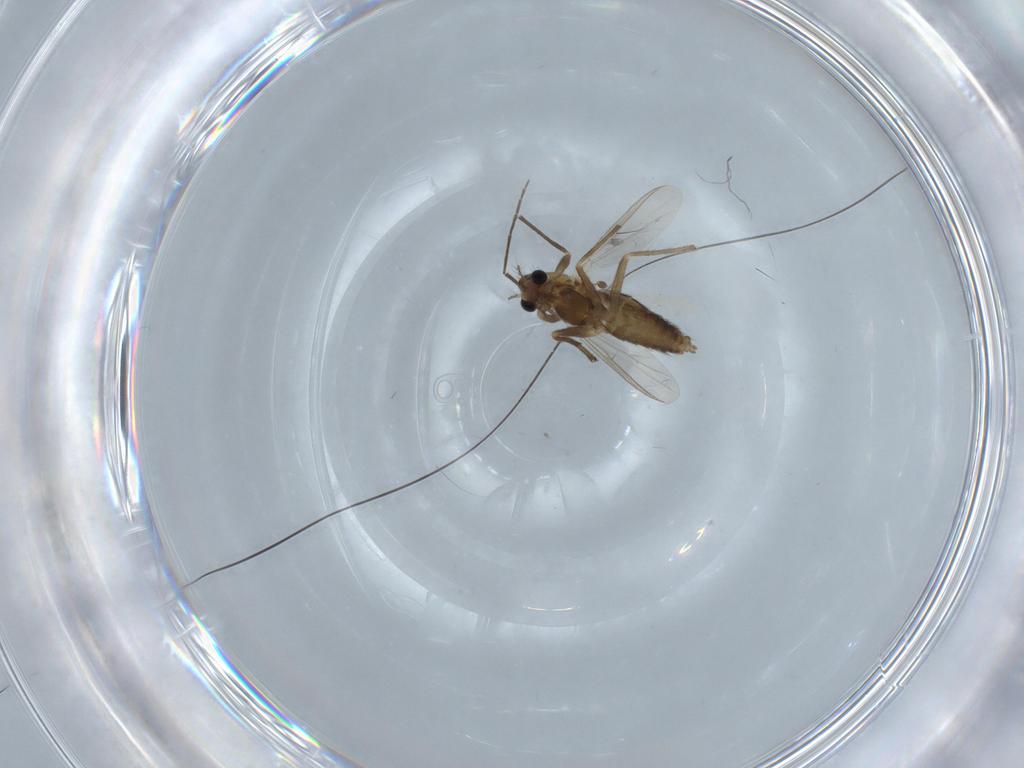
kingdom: Animalia
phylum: Arthropoda
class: Insecta
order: Diptera
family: Chironomidae
